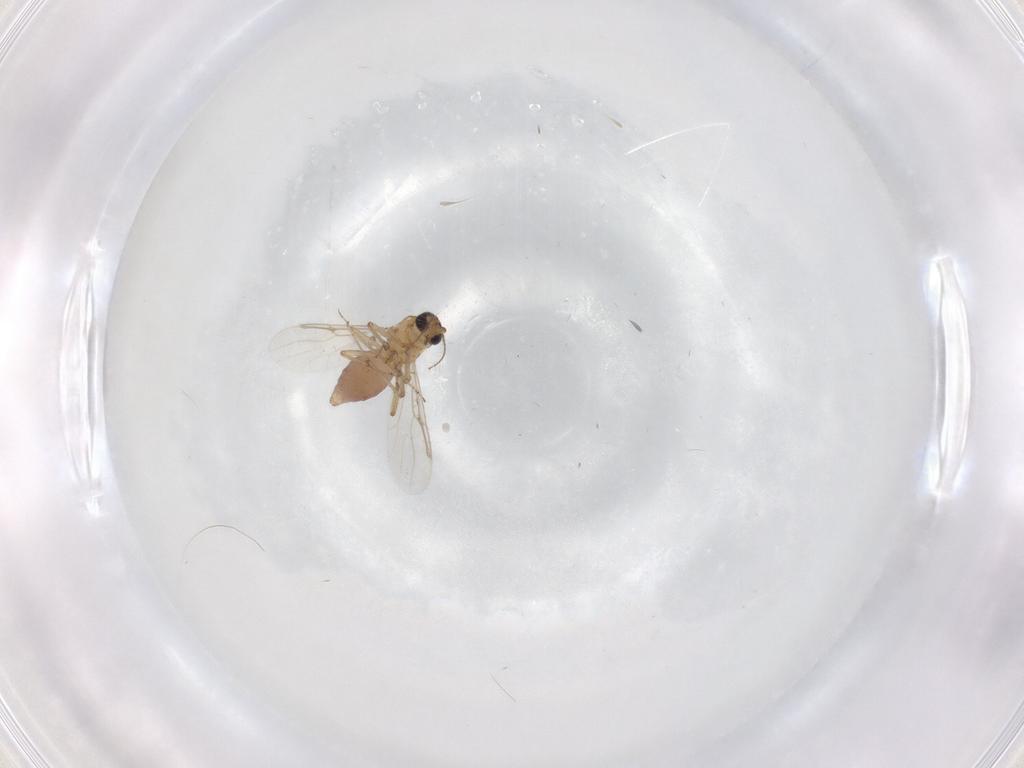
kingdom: Animalia
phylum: Arthropoda
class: Insecta
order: Diptera
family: Ceratopogonidae
